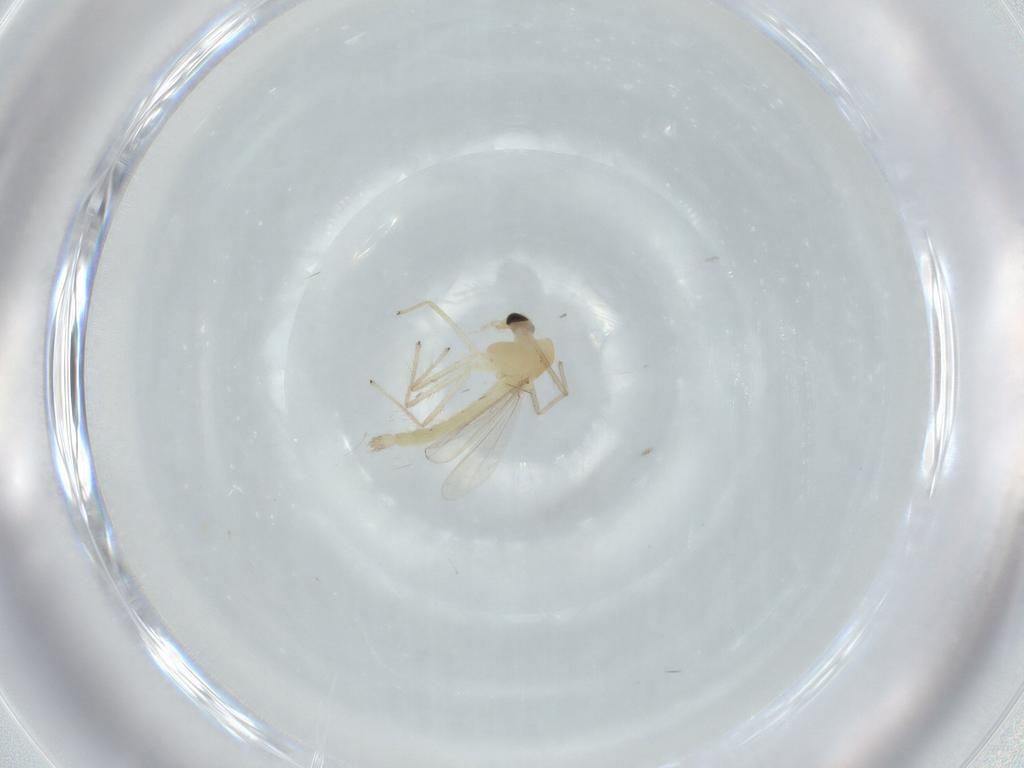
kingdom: Animalia
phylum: Arthropoda
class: Insecta
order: Diptera
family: Chironomidae
